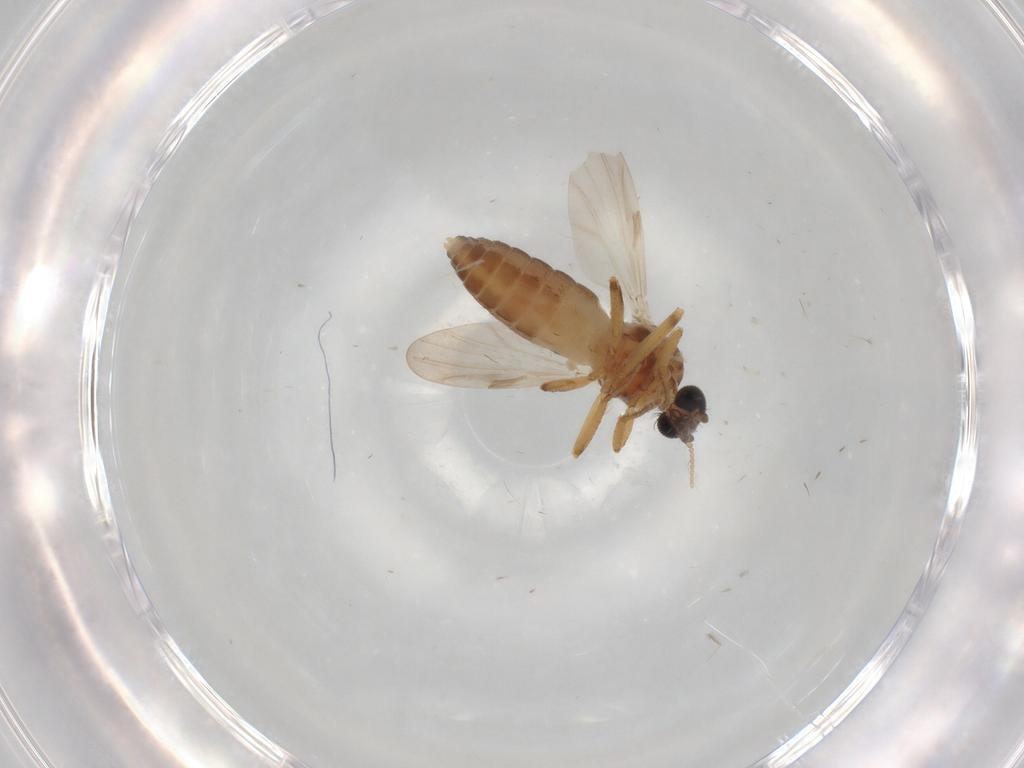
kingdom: Animalia
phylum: Arthropoda
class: Insecta
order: Diptera
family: Ceratopogonidae
